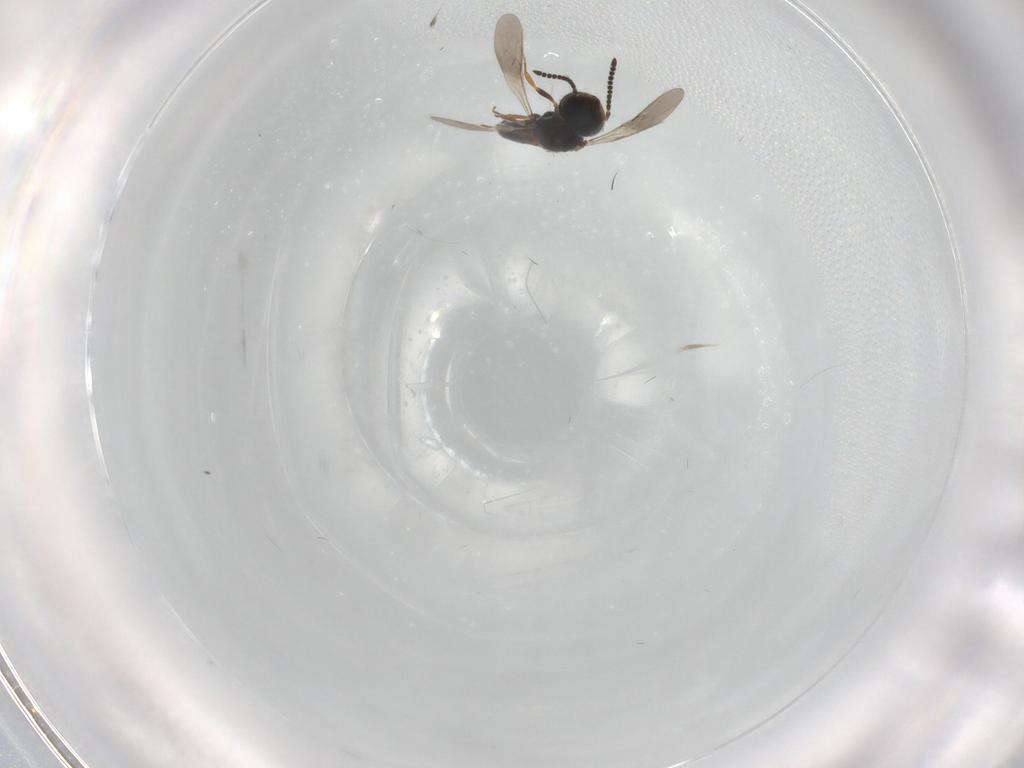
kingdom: Animalia
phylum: Arthropoda
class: Insecta
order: Hymenoptera
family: Scelionidae
